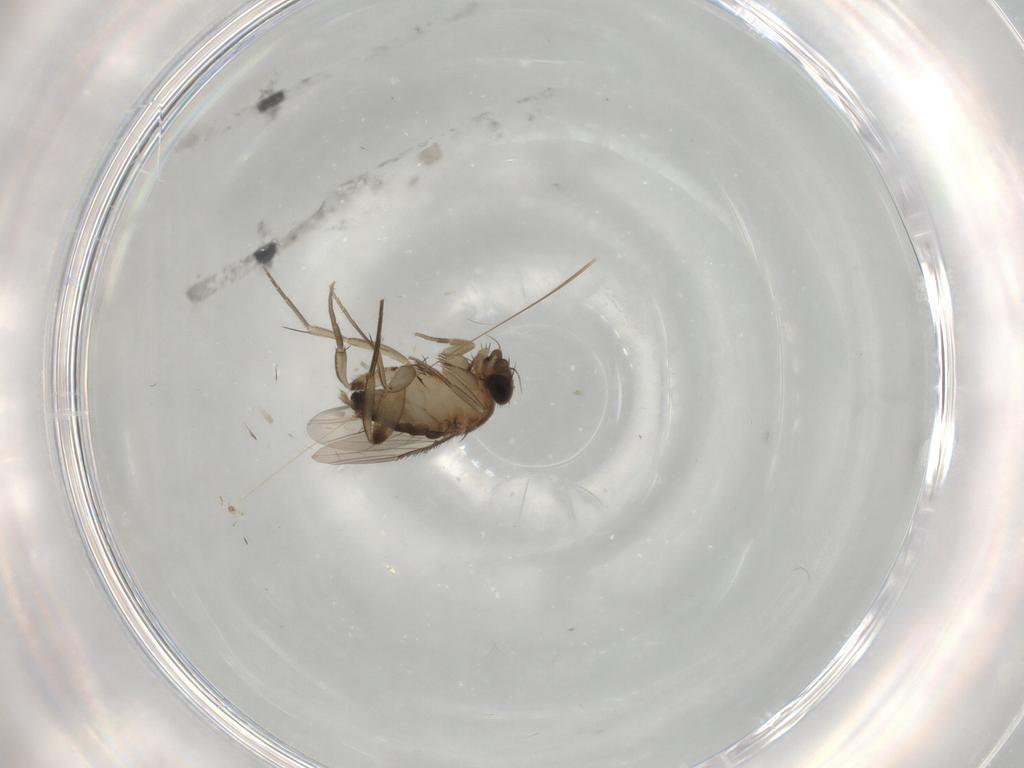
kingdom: Animalia
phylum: Arthropoda
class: Insecta
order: Diptera
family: Phoridae
